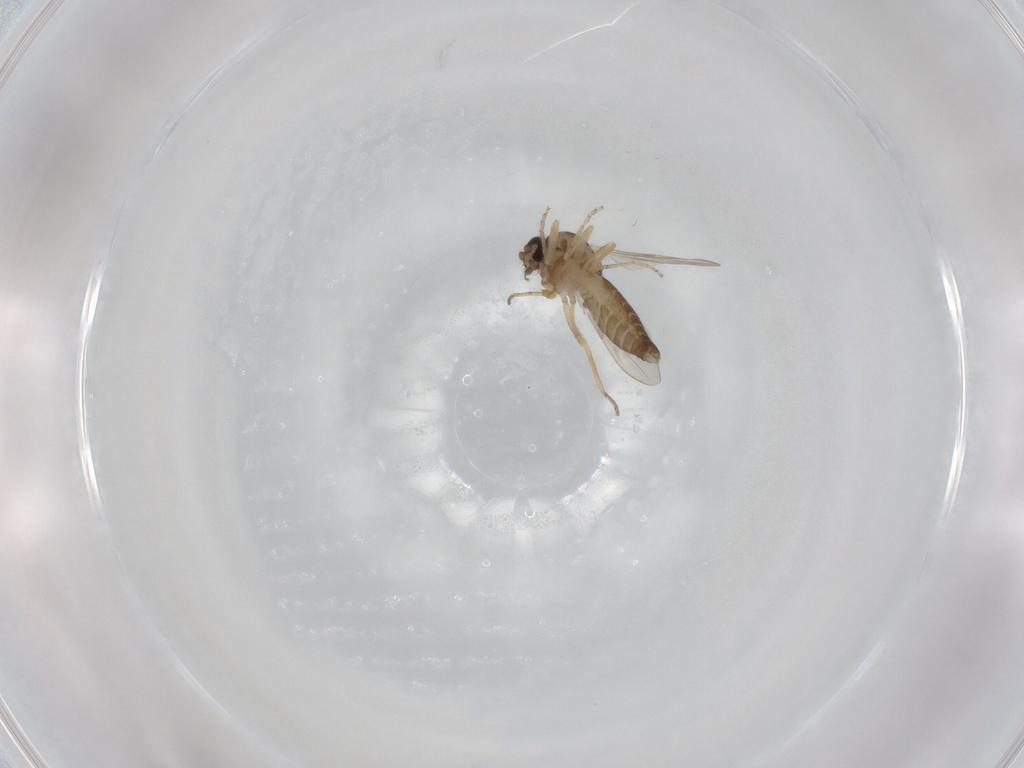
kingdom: Animalia
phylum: Arthropoda
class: Insecta
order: Diptera
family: Ceratopogonidae
